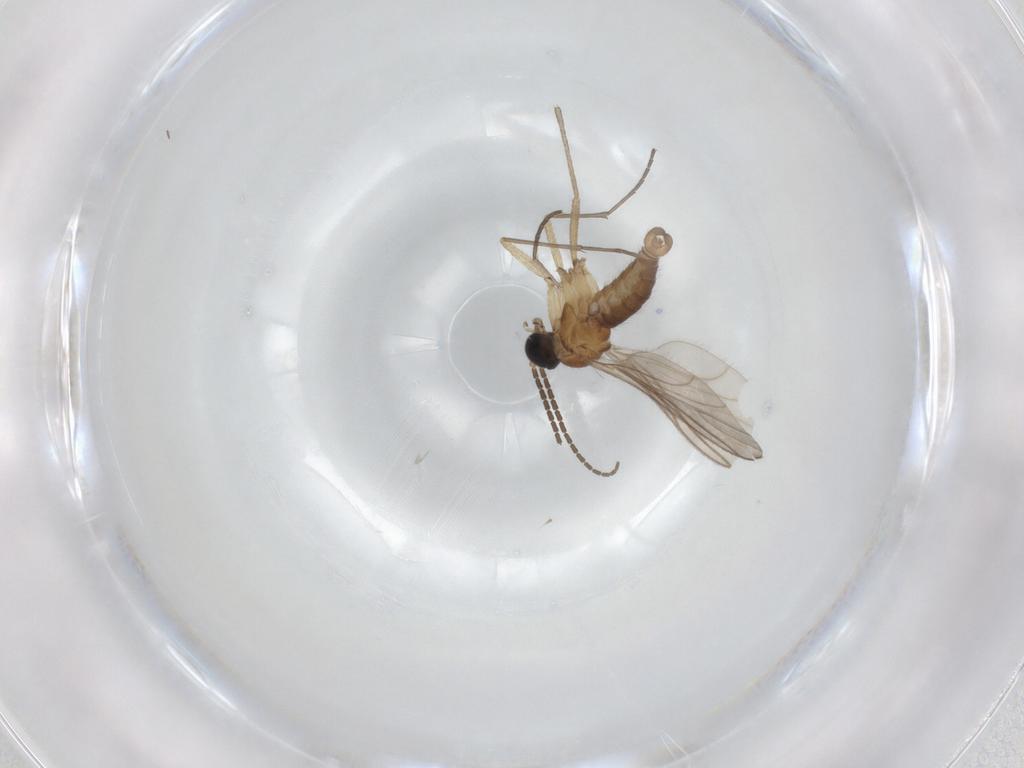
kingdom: Animalia
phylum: Arthropoda
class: Insecta
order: Diptera
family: Sciaridae
